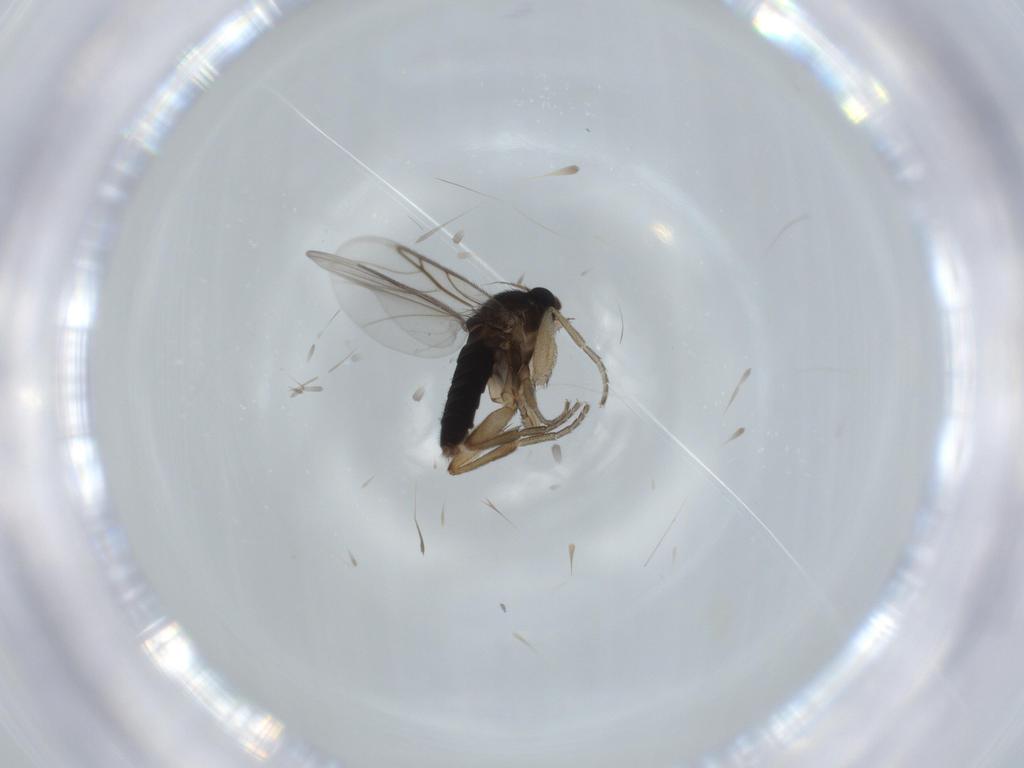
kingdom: Animalia
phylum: Arthropoda
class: Insecta
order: Diptera
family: Phoridae
